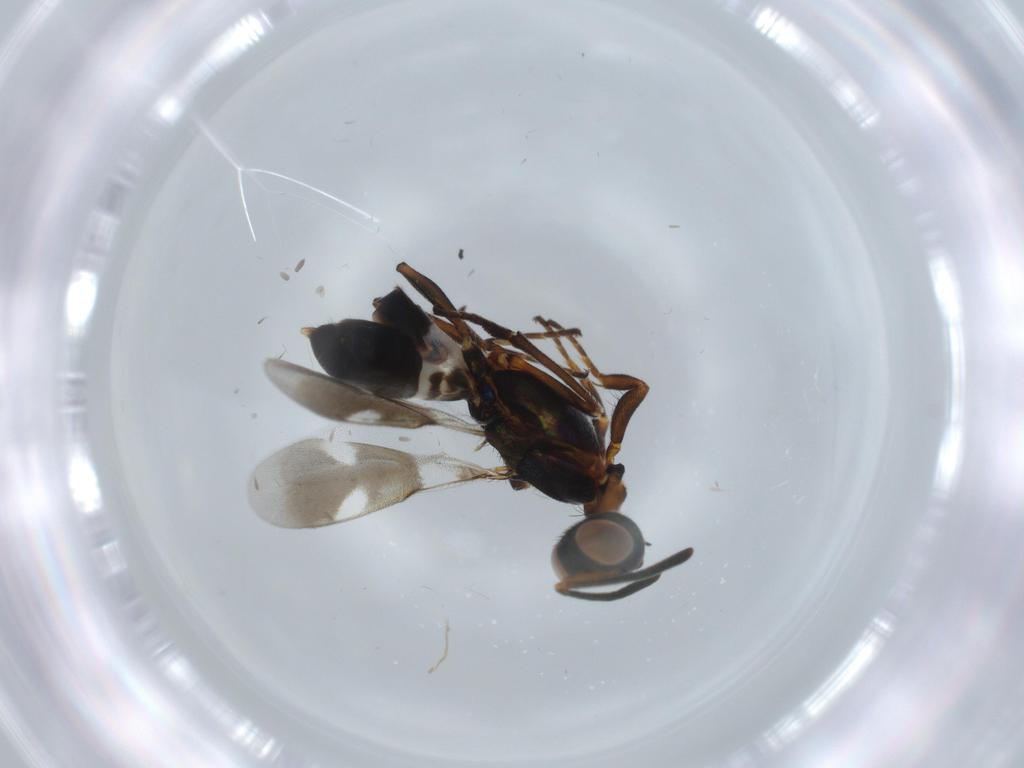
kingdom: Animalia
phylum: Arthropoda
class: Insecta
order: Hymenoptera
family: Eupelmidae
